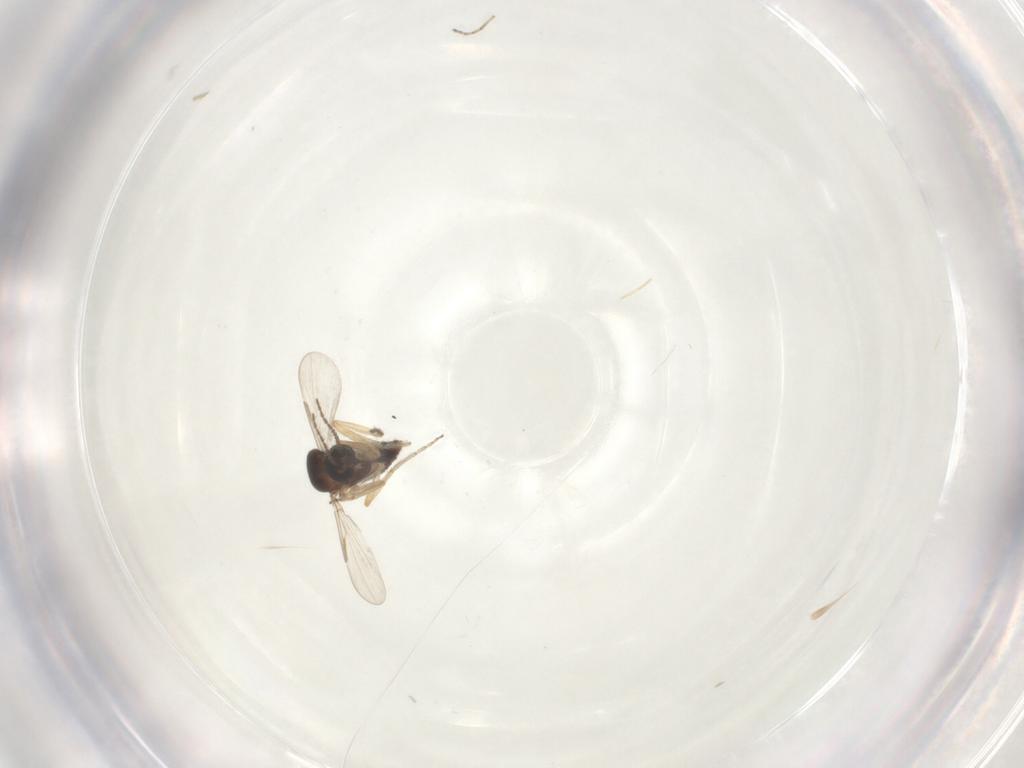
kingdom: Animalia
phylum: Arthropoda
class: Insecta
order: Diptera
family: Ceratopogonidae
